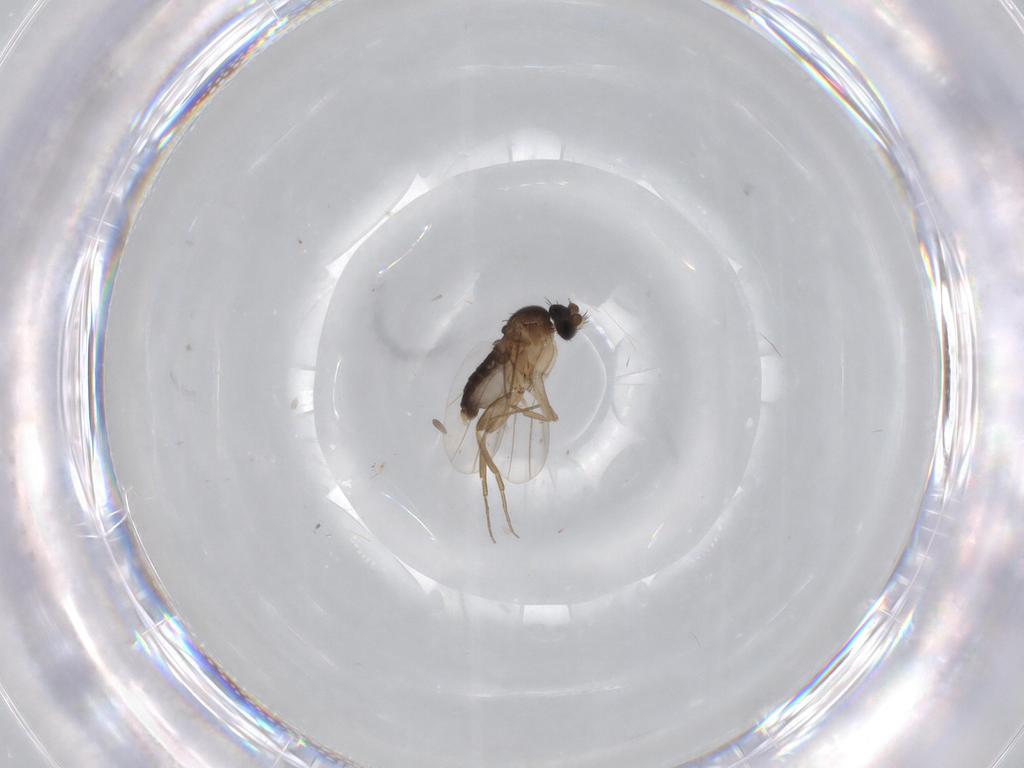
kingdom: Animalia
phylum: Arthropoda
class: Insecta
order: Diptera
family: Phoridae
